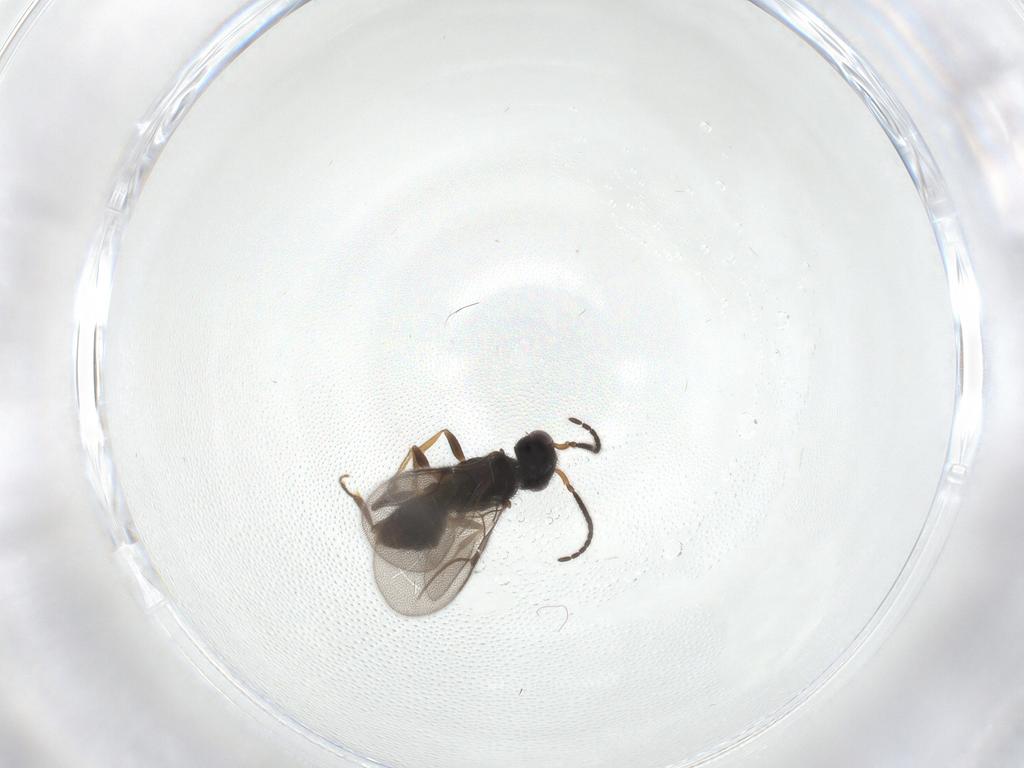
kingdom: Animalia
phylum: Arthropoda
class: Insecta
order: Hymenoptera
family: Bethylidae
